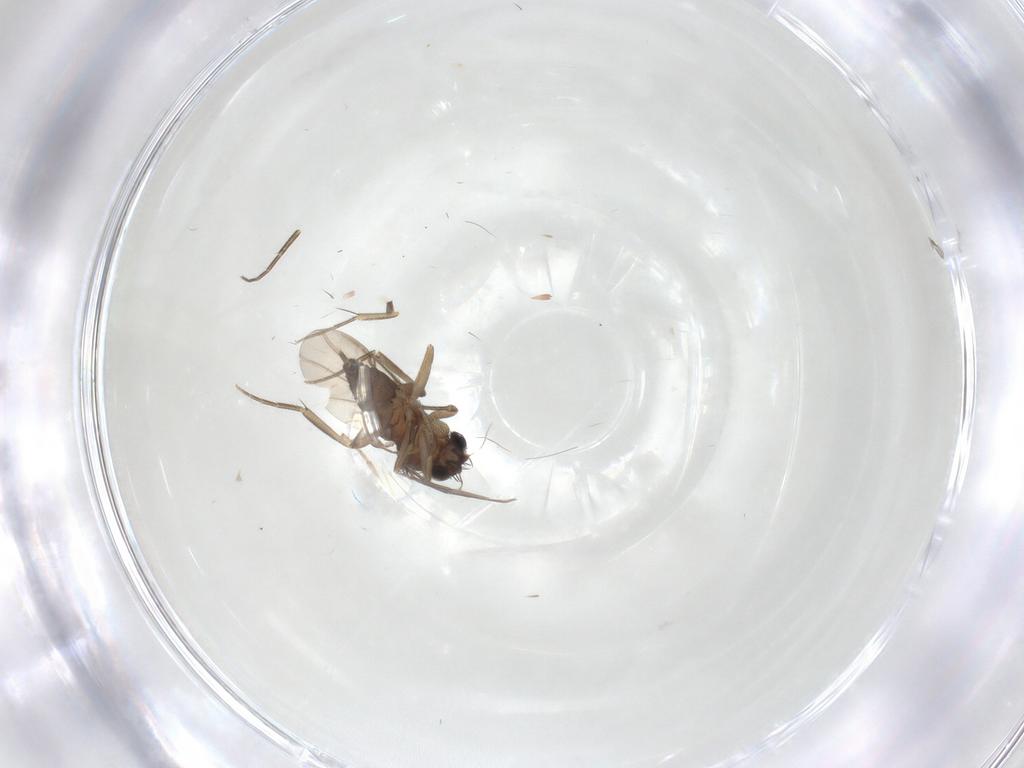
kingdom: Animalia
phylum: Arthropoda
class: Insecta
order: Diptera
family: Phoridae
